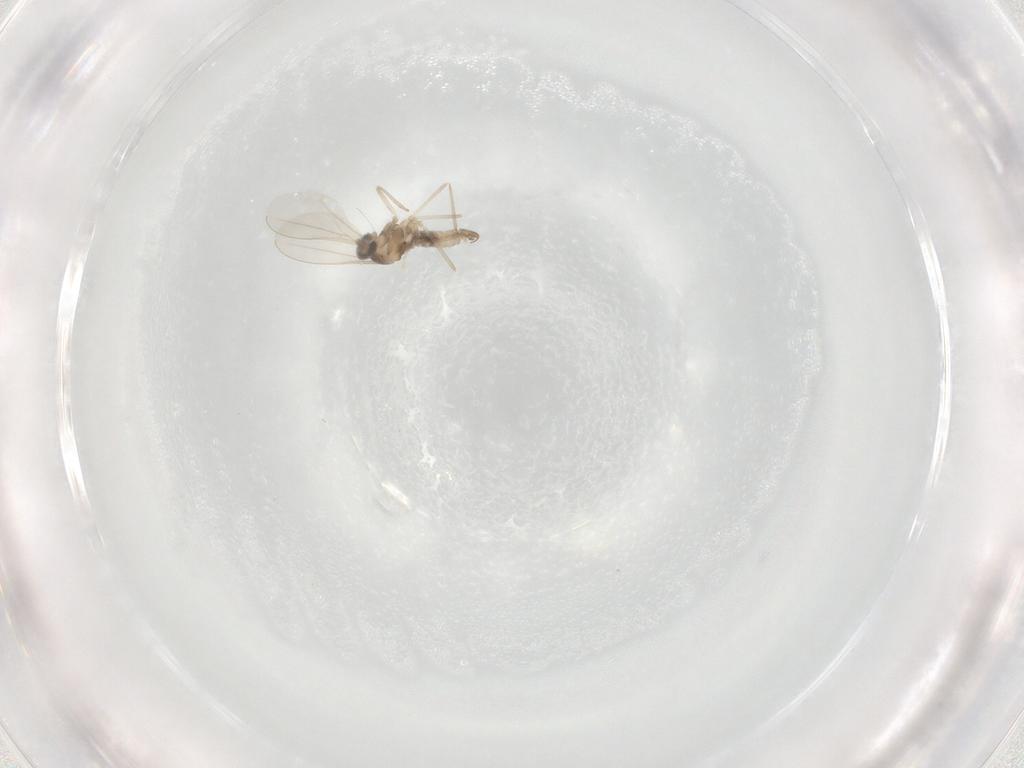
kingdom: Animalia
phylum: Arthropoda
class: Insecta
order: Diptera
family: Cecidomyiidae
